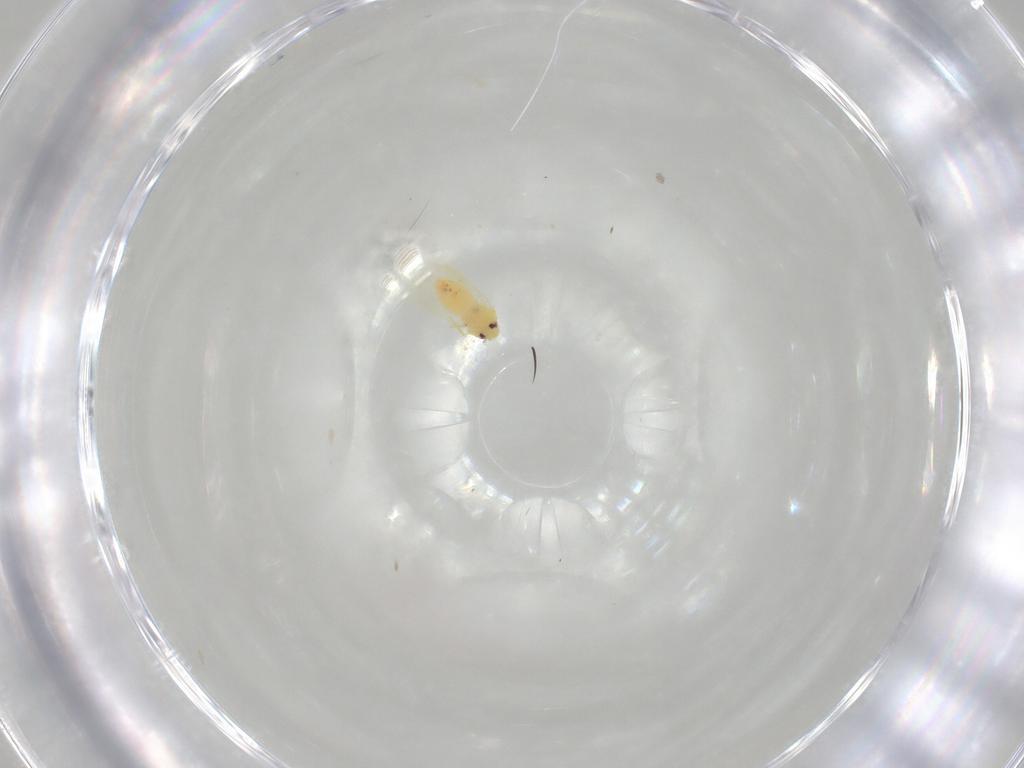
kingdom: Animalia
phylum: Arthropoda
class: Insecta
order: Hemiptera
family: Aleyrodidae
